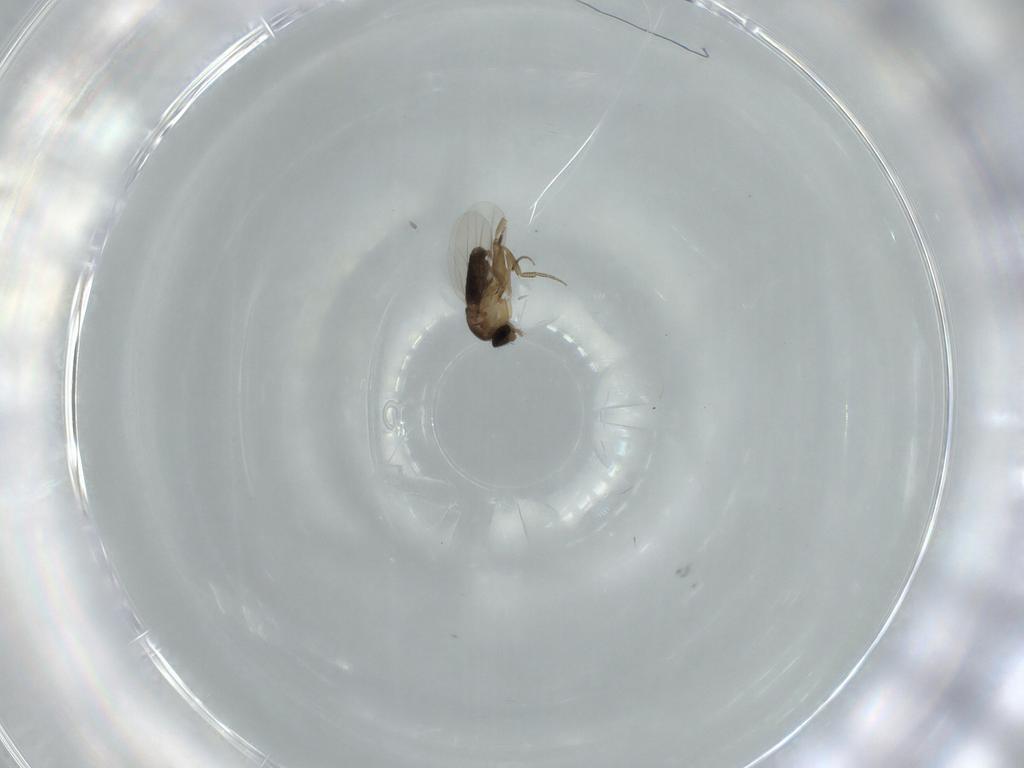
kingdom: Animalia
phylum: Arthropoda
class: Insecta
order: Diptera
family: Phoridae
